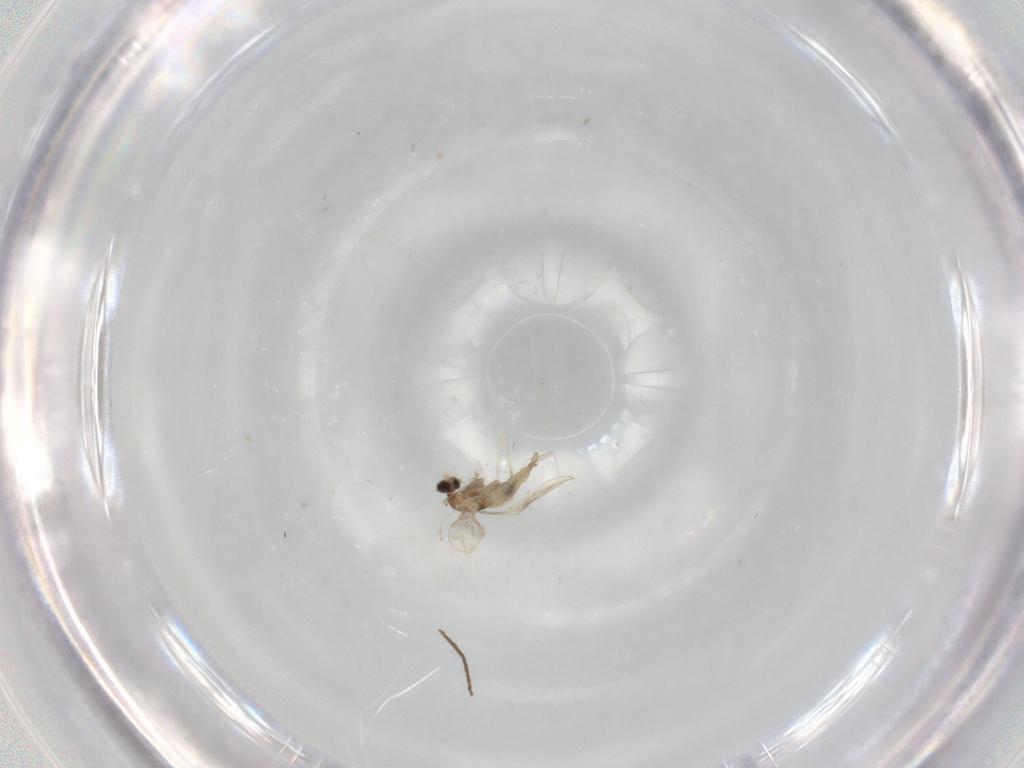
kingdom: Animalia
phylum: Arthropoda
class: Insecta
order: Diptera
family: Cecidomyiidae
